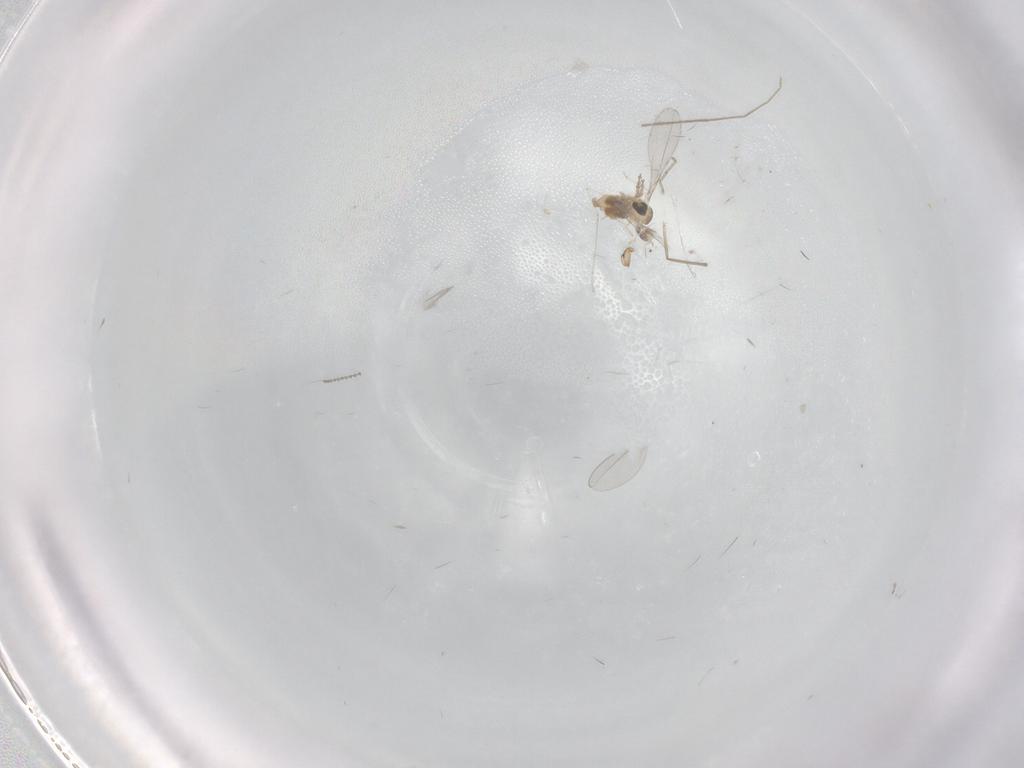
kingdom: Animalia
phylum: Arthropoda
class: Insecta
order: Diptera
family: Cecidomyiidae
